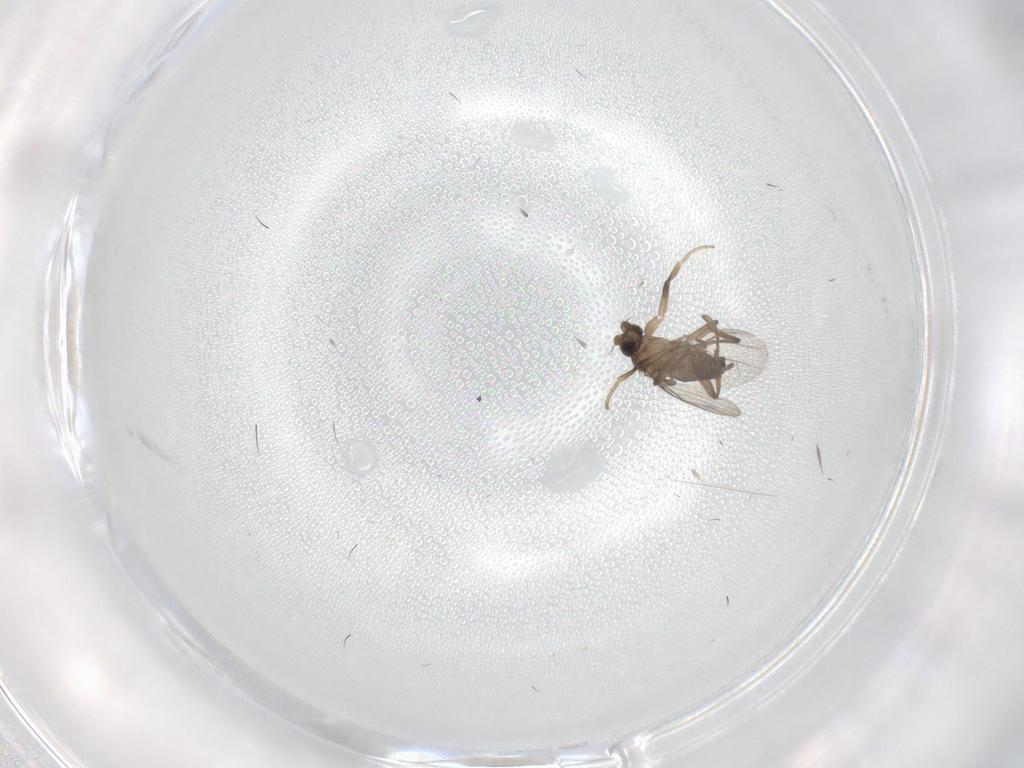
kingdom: Animalia
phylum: Arthropoda
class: Insecta
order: Diptera
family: Phoridae
